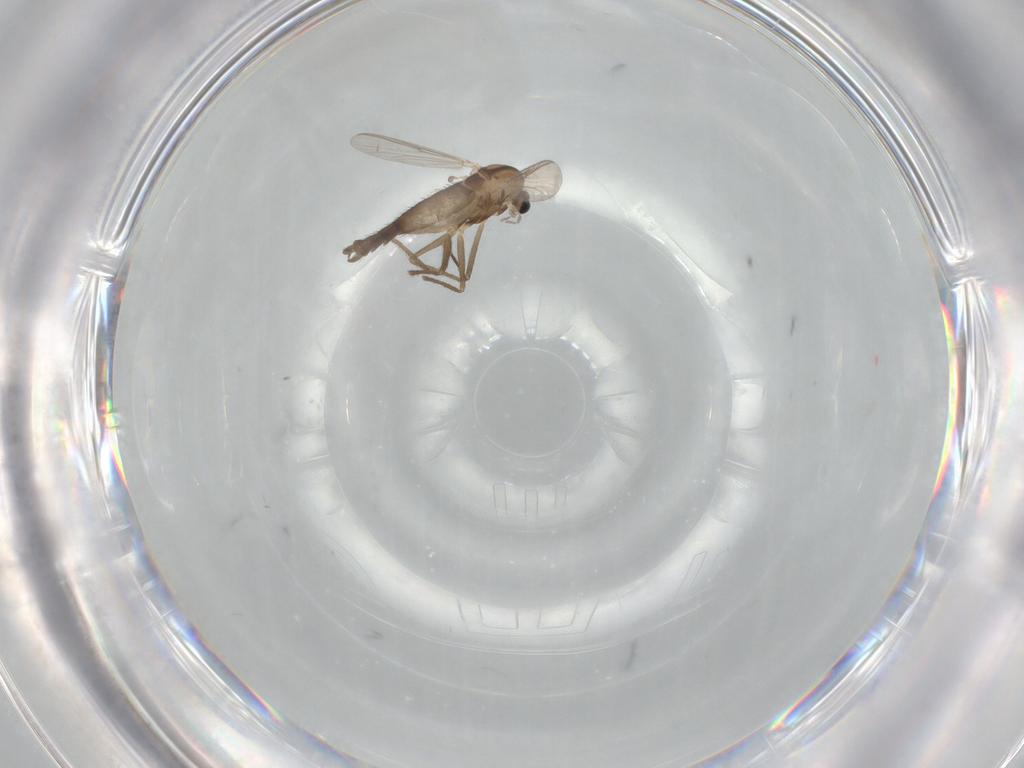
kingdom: Animalia
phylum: Arthropoda
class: Insecta
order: Diptera
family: Chironomidae
